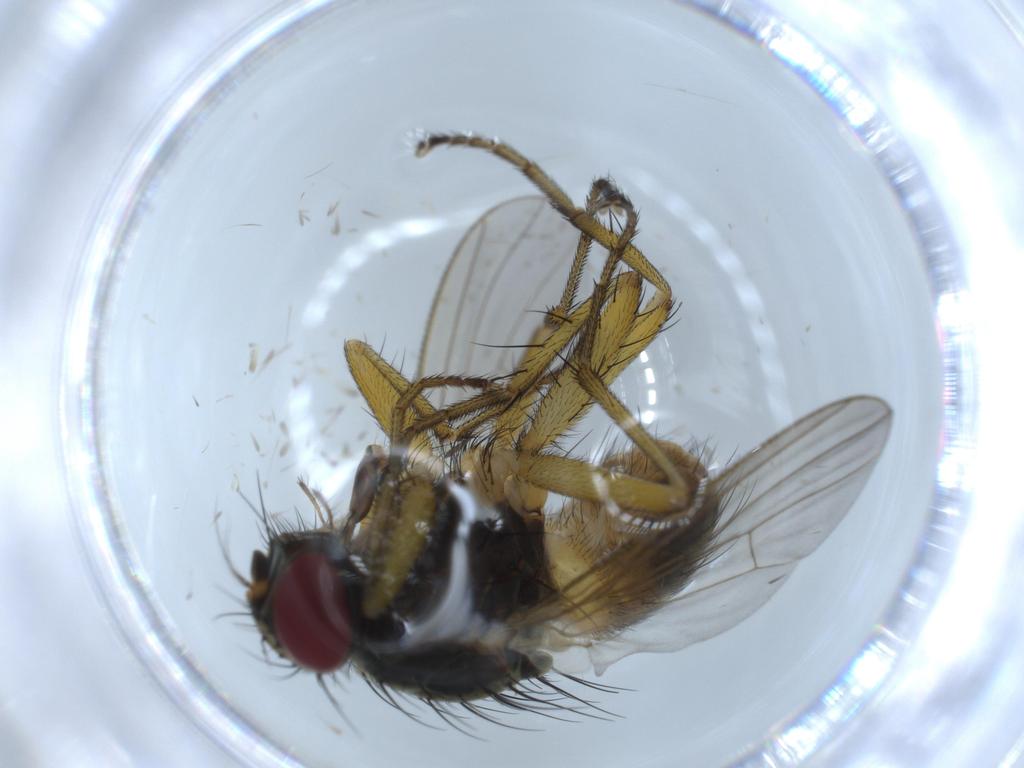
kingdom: Animalia
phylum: Arthropoda
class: Insecta
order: Diptera
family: Muscidae
